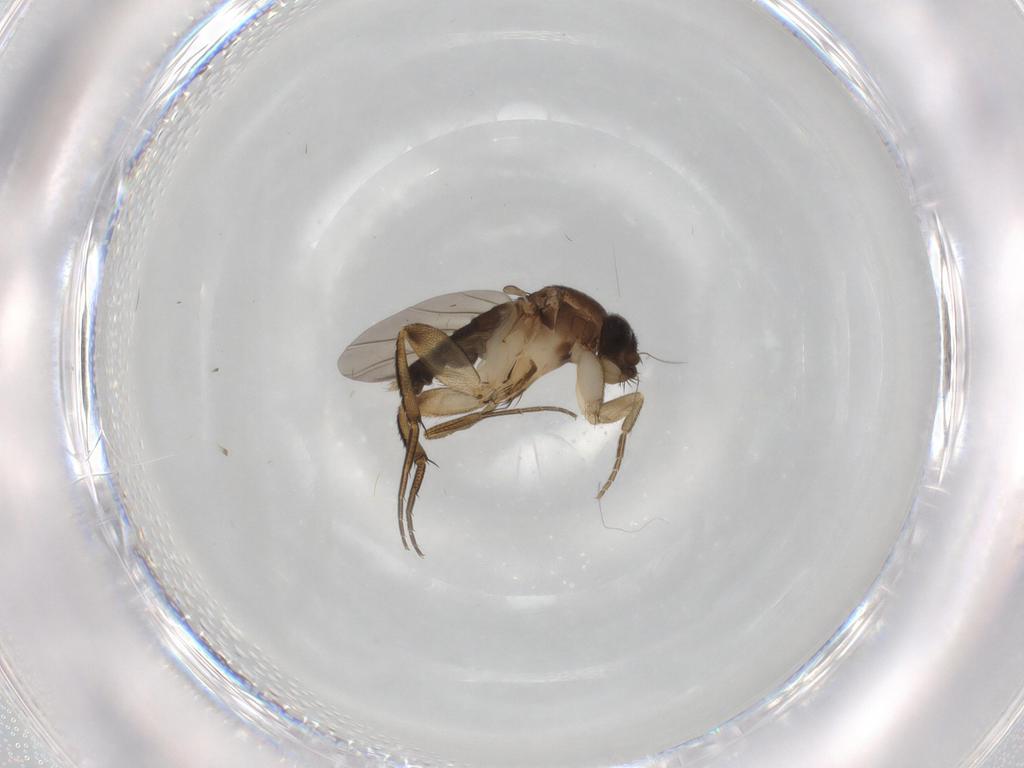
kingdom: Animalia
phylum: Arthropoda
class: Insecta
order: Diptera
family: Phoridae
